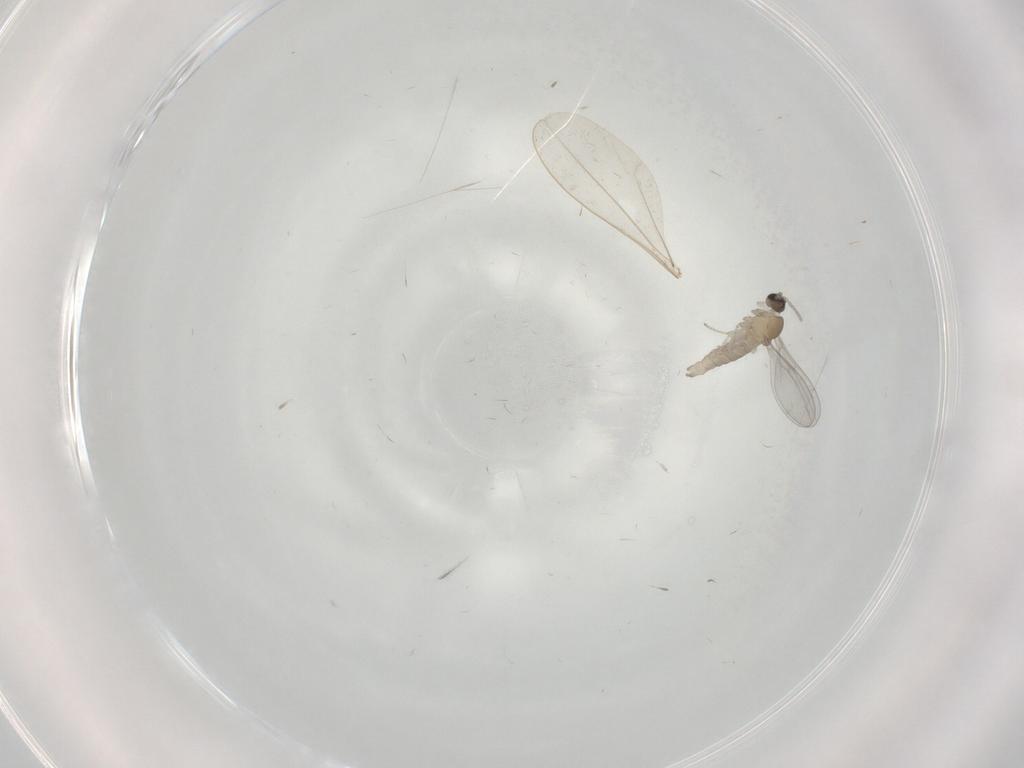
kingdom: Animalia
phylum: Arthropoda
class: Insecta
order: Diptera
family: Cecidomyiidae
